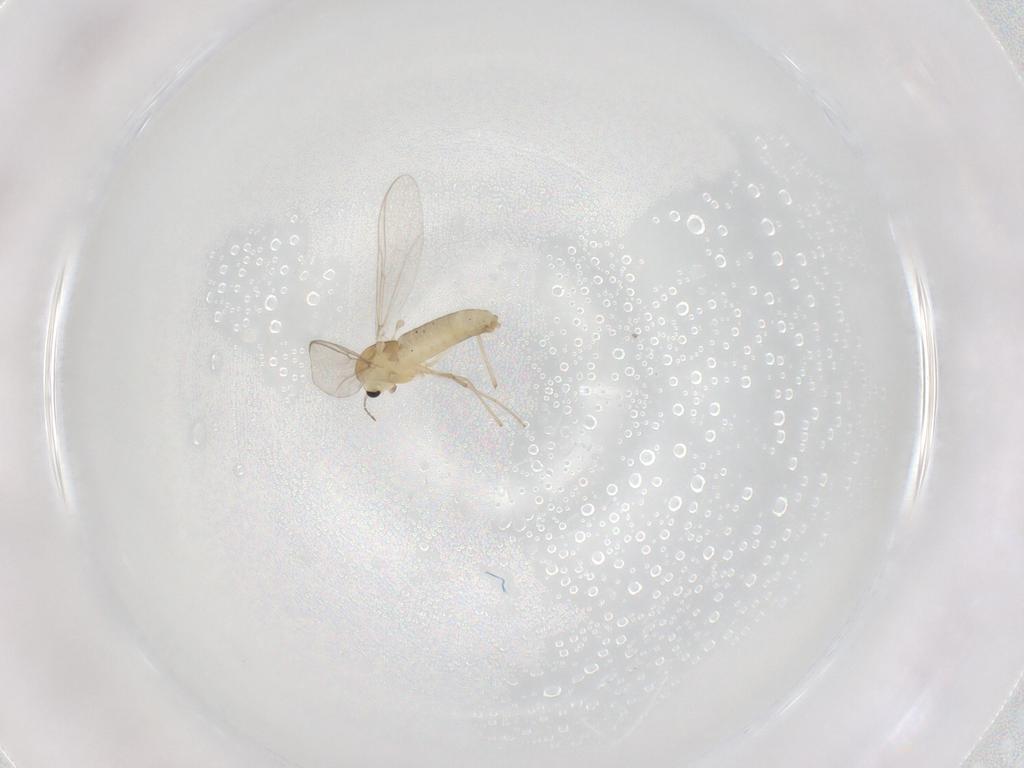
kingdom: Animalia
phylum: Arthropoda
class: Insecta
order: Diptera
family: Chironomidae
